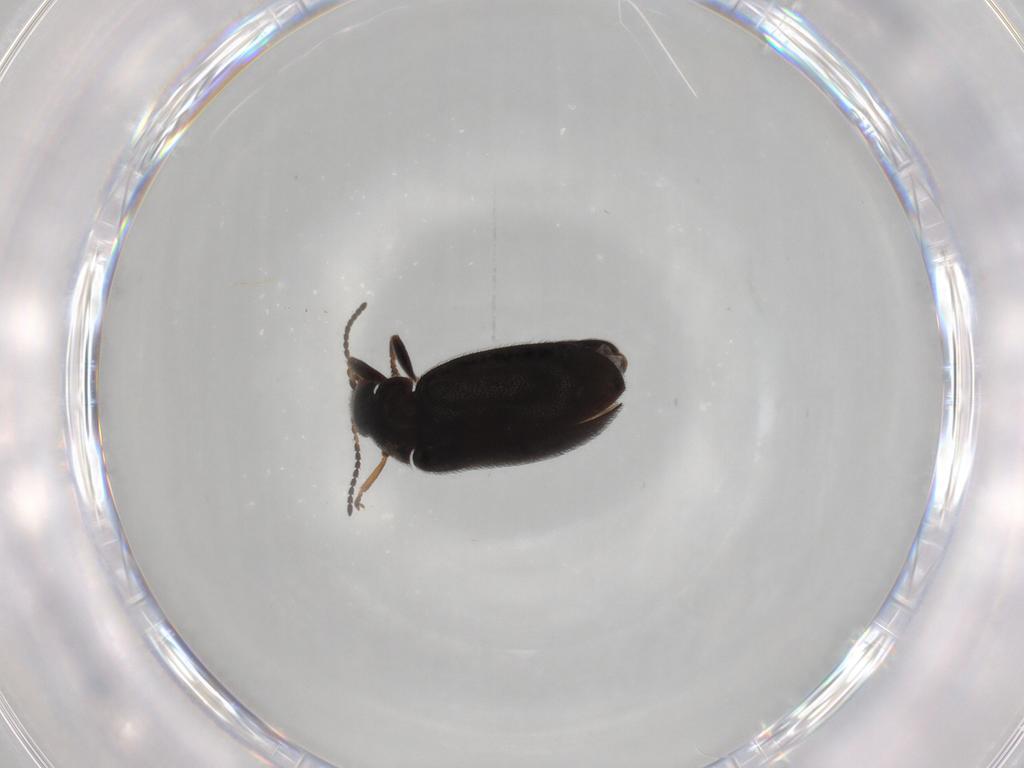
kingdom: Animalia
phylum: Arthropoda
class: Insecta
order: Coleoptera
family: Scirtidae
